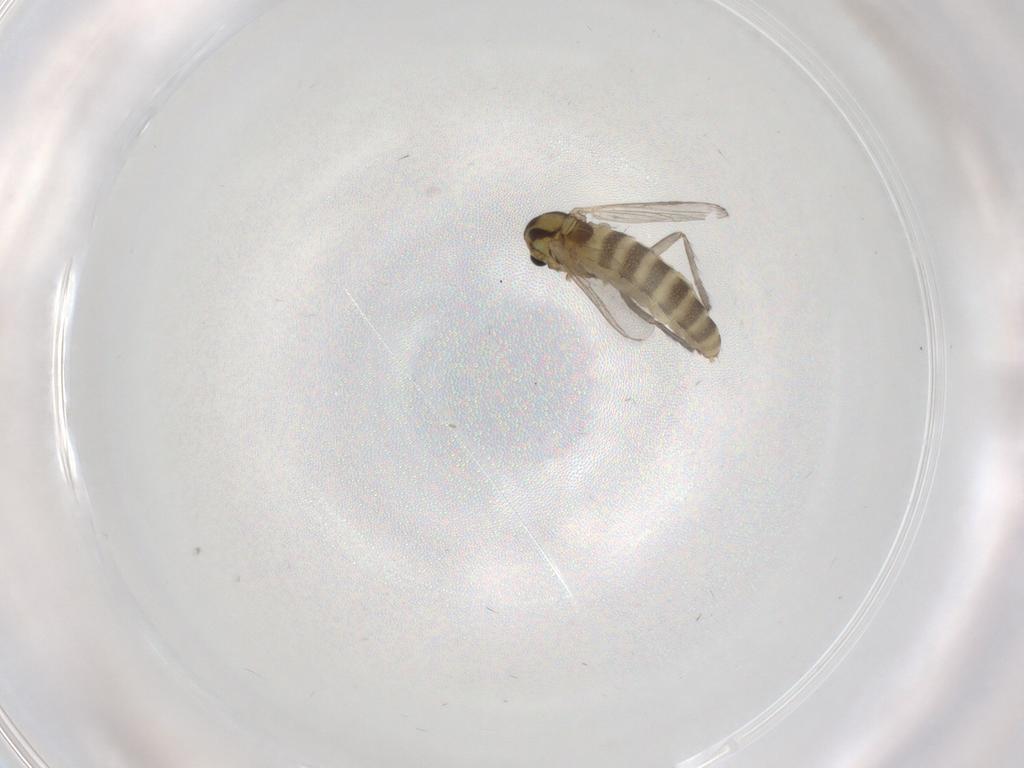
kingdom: Animalia
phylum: Arthropoda
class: Insecta
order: Diptera
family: Chironomidae
